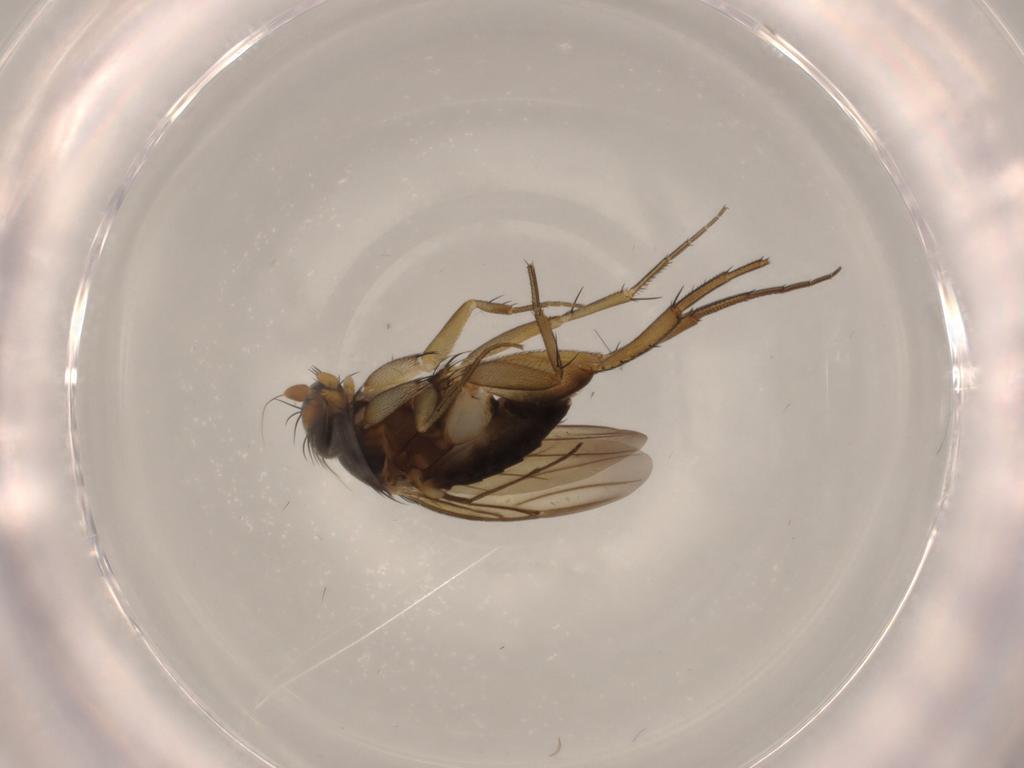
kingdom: Animalia
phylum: Arthropoda
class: Insecta
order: Diptera
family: Phoridae
